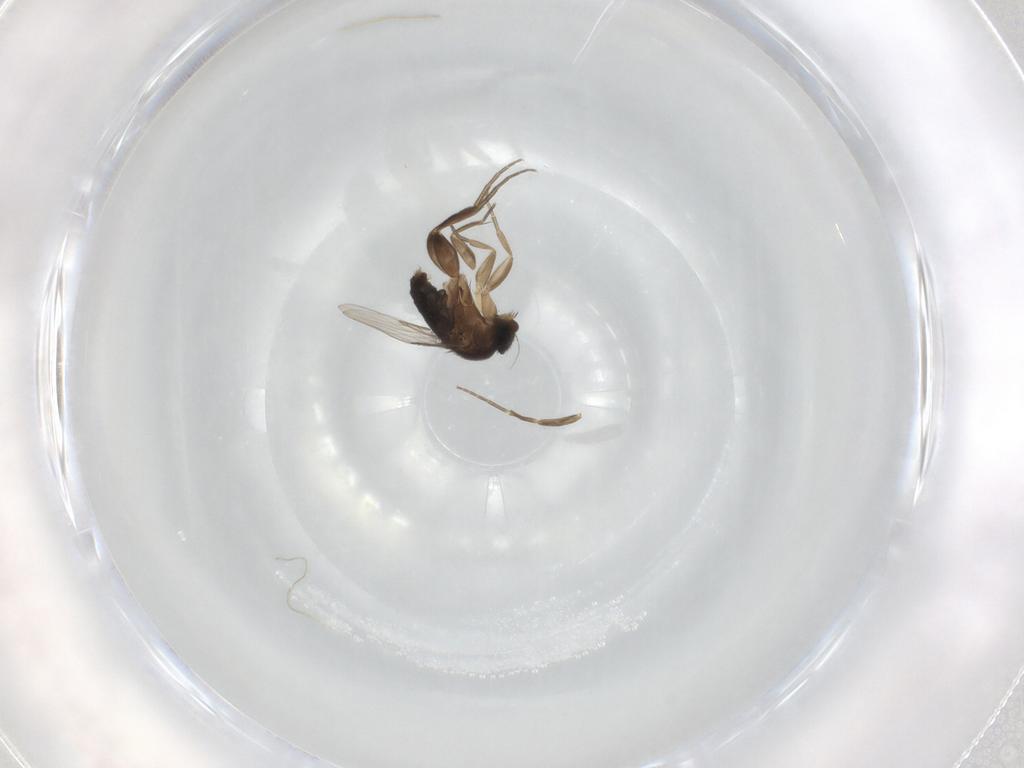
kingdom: Animalia
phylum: Arthropoda
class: Insecta
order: Diptera
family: Phoridae
